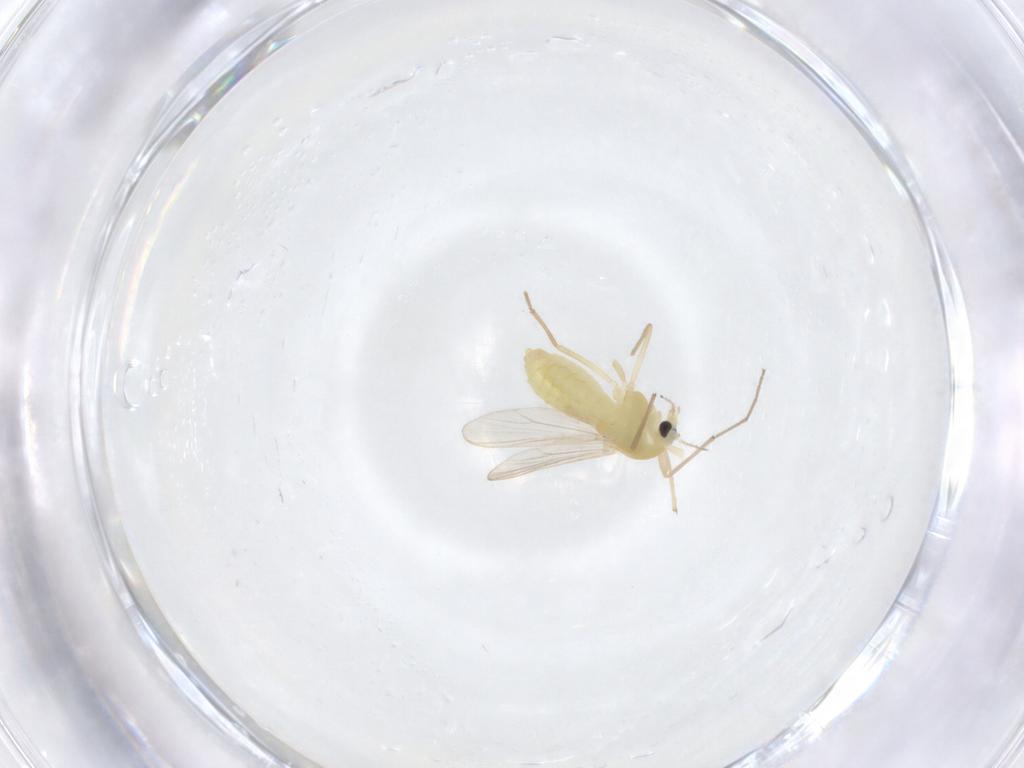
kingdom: Animalia
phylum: Arthropoda
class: Insecta
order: Diptera
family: Chironomidae
